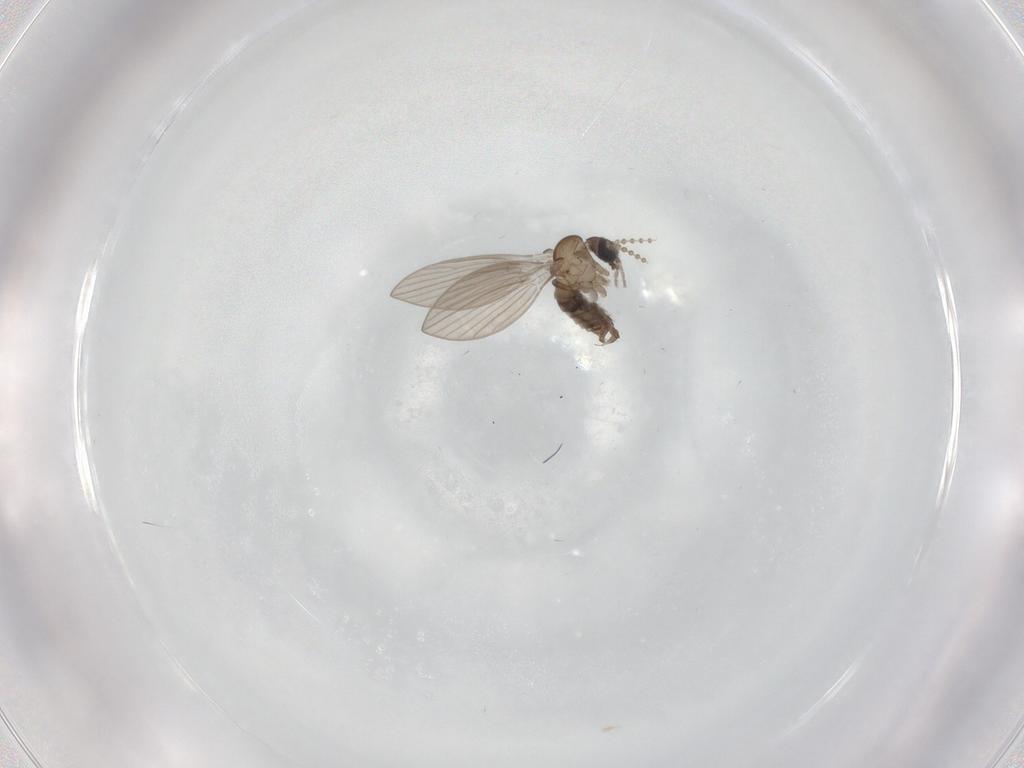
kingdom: Animalia
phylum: Arthropoda
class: Insecta
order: Diptera
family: Psychodidae
